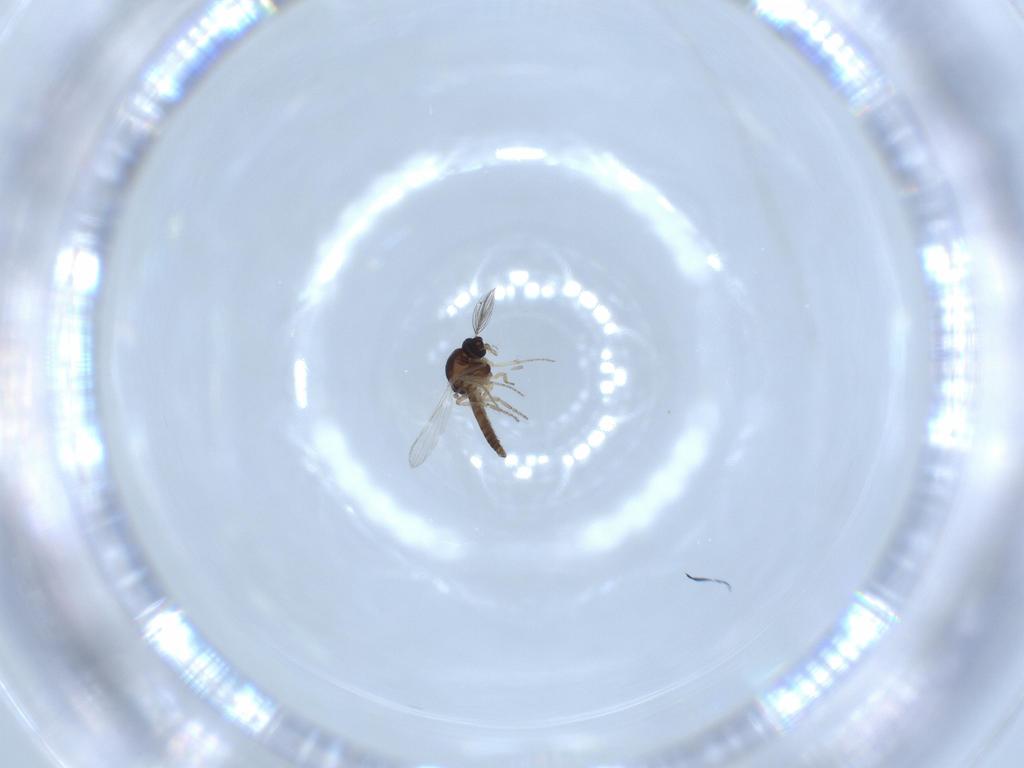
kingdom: Animalia
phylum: Arthropoda
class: Insecta
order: Diptera
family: Ceratopogonidae
